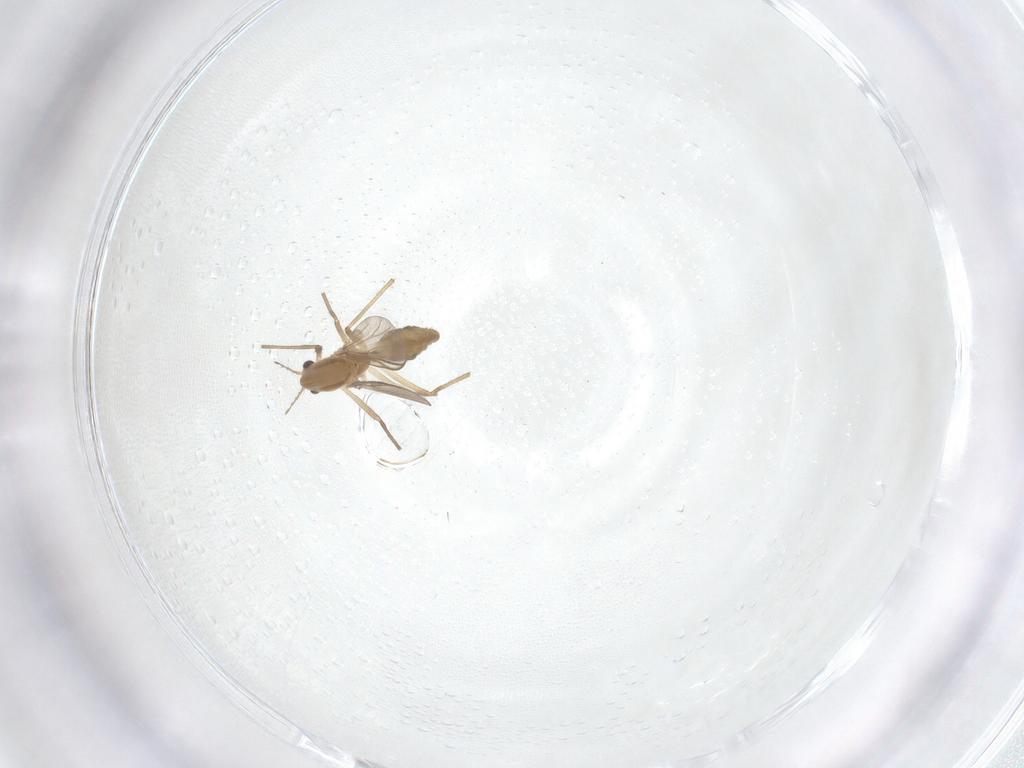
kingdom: Animalia
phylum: Arthropoda
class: Insecta
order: Diptera
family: Chironomidae
